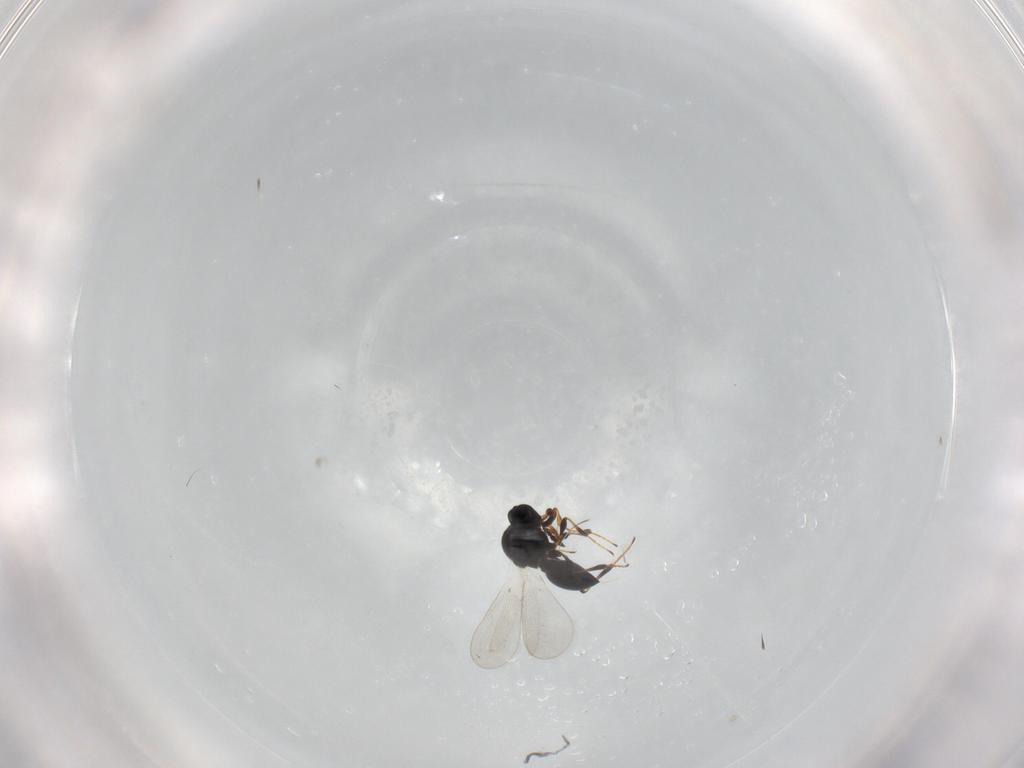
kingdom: Animalia
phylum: Arthropoda
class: Insecta
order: Hymenoptera
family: Platygastridae
